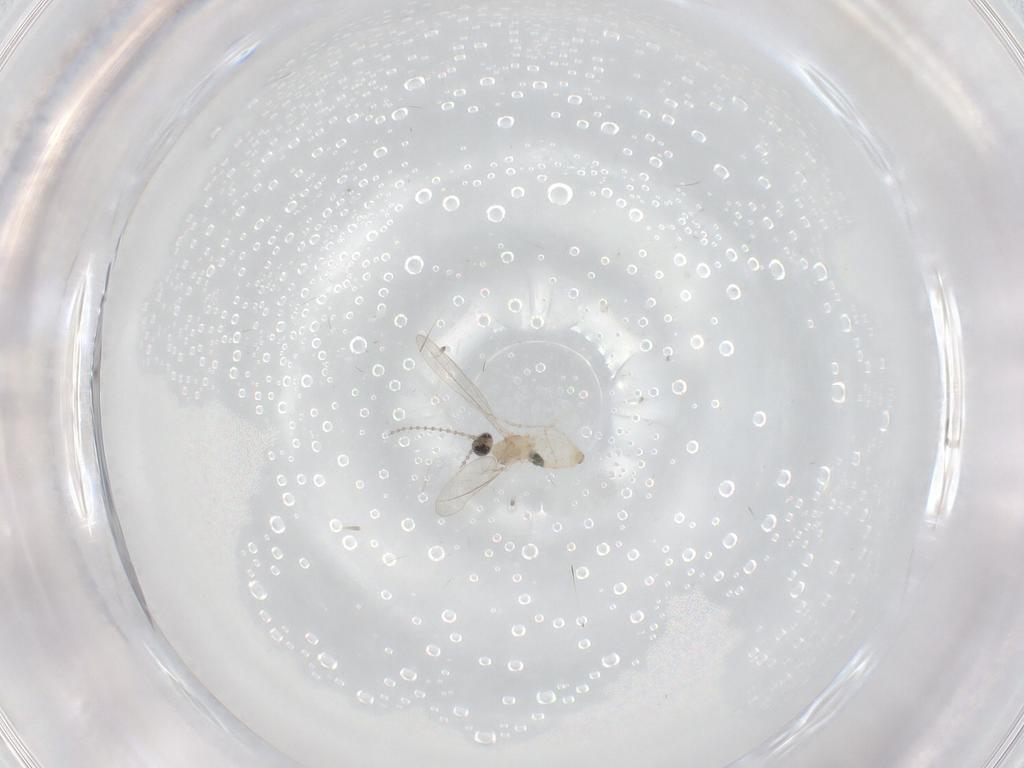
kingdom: Animalia
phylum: Arthropoda
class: Insecta
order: Diptera
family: Cecidomyiidae
